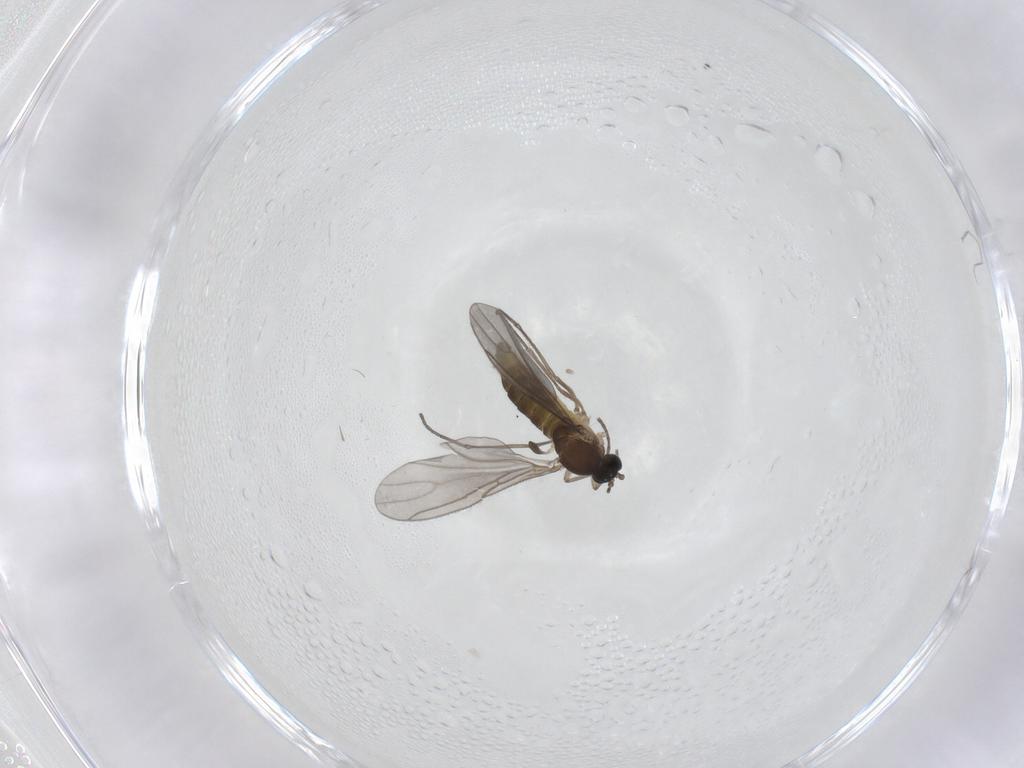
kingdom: Animalia
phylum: Arthropoda
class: Insecta
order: Diptera
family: Sciaridae
